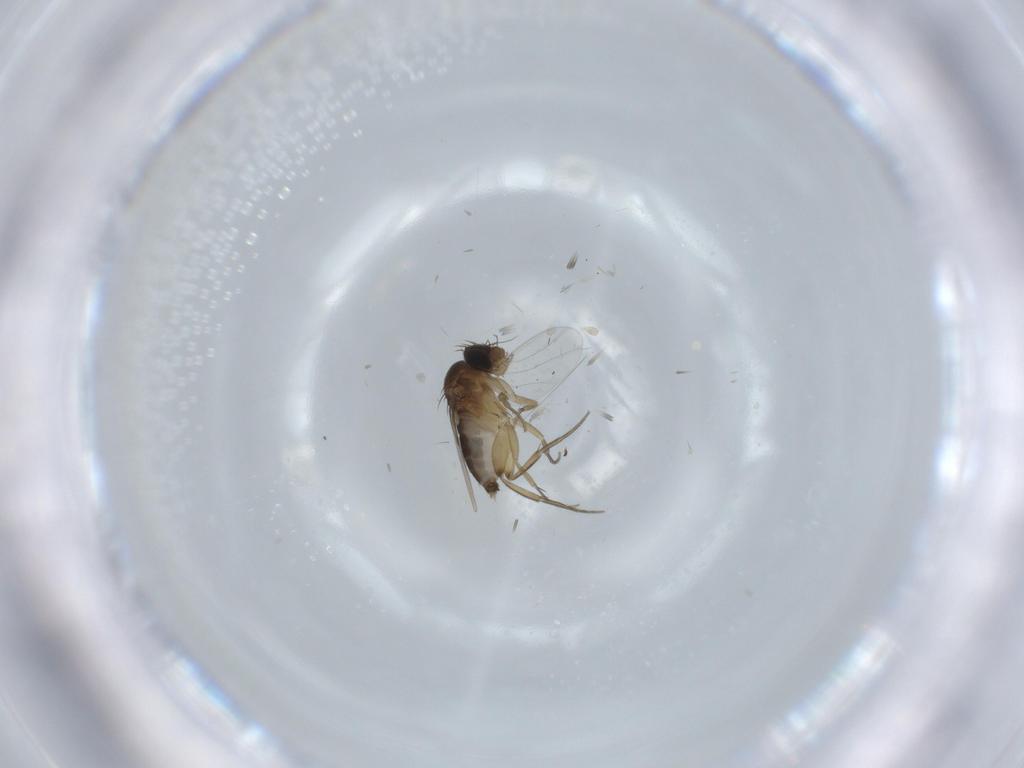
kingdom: Animalia
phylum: Arthropoda
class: Insecta
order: Diptera
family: Phoridae
